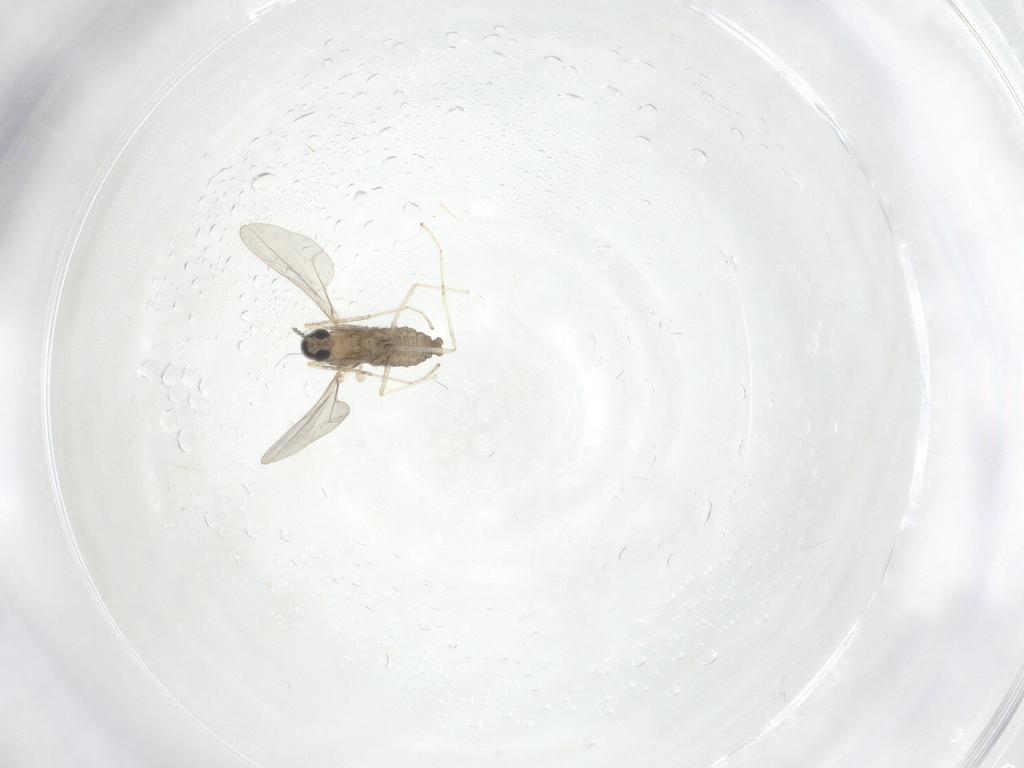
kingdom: Animalia
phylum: Arthropoda
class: Insecta
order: Diptera
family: Cecidomyiidae
